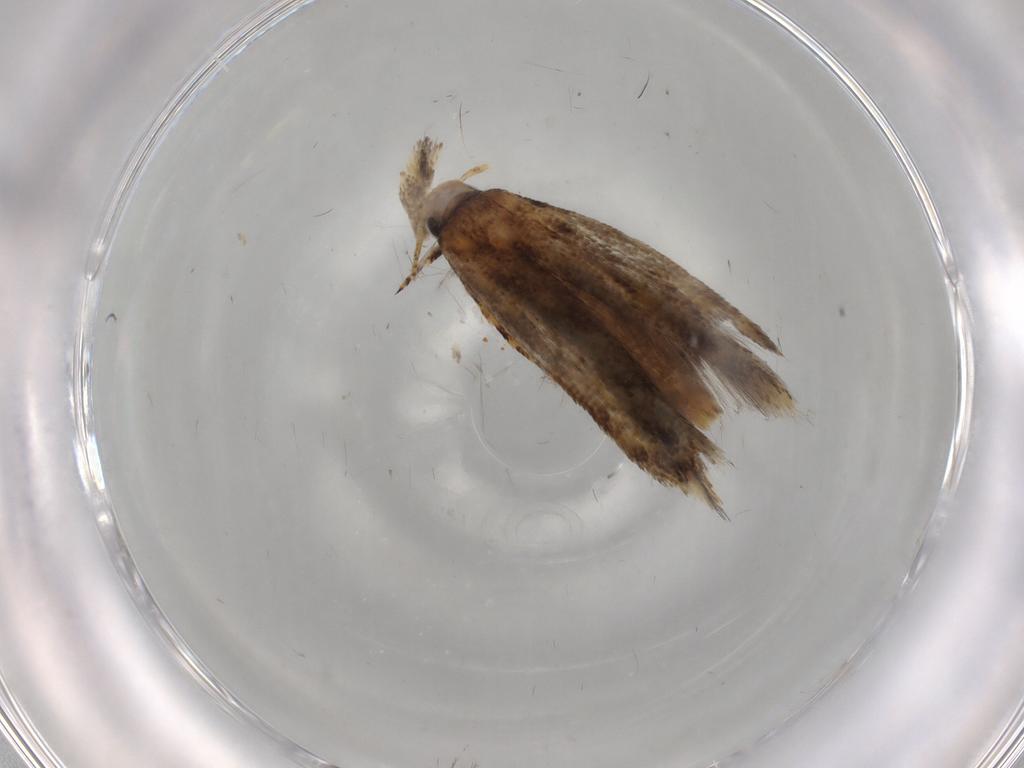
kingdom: Animalia
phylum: Arthropoda
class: Insecta
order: Lepidoptera
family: Gelechiidae
